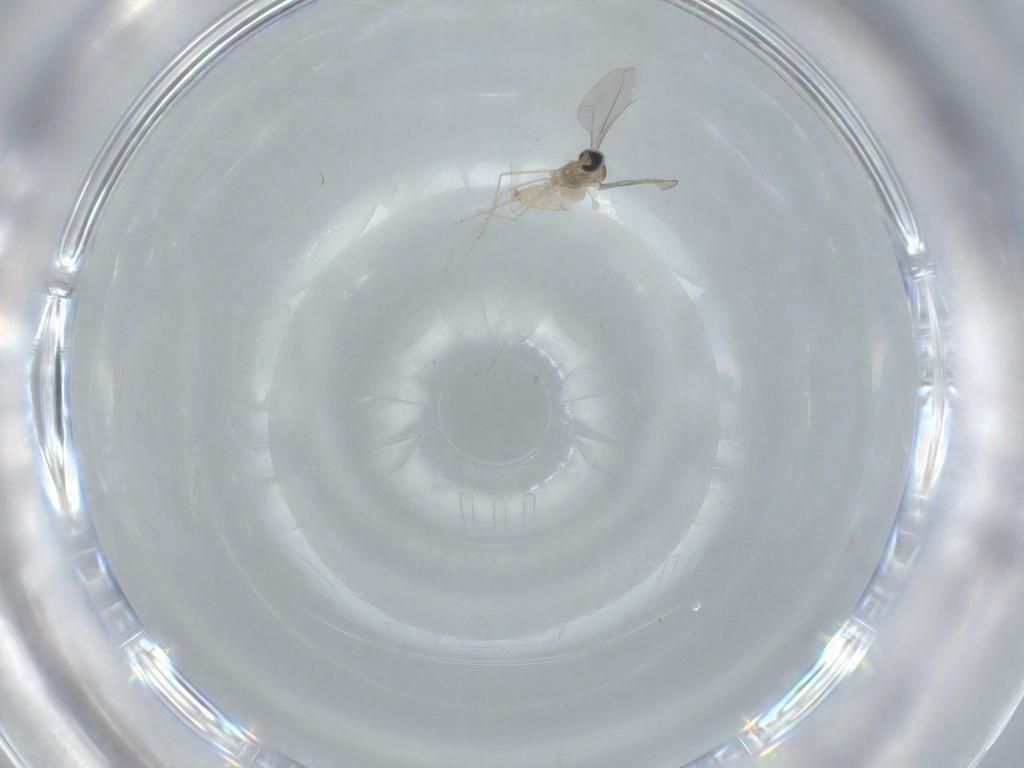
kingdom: Animalia
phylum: Arthropoda
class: Insecta
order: Diptera
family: Cecidomyiidae
